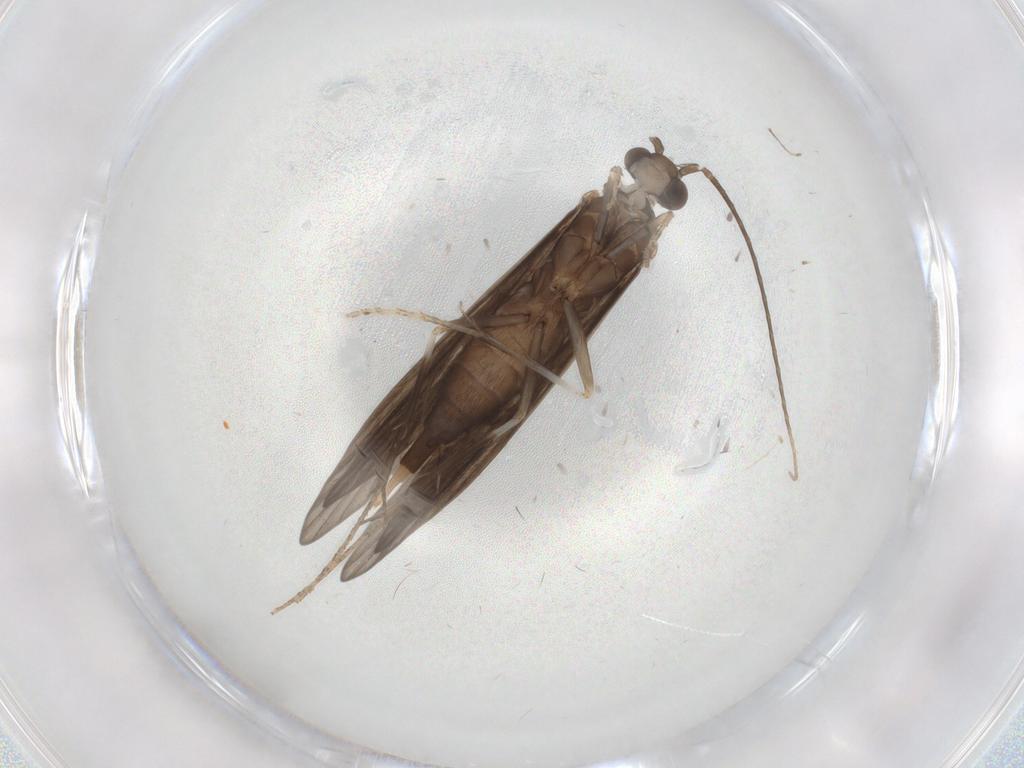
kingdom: Animalia
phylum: Arthropoda
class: Insecta
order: Trichoptera
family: Xiphocentronidae
